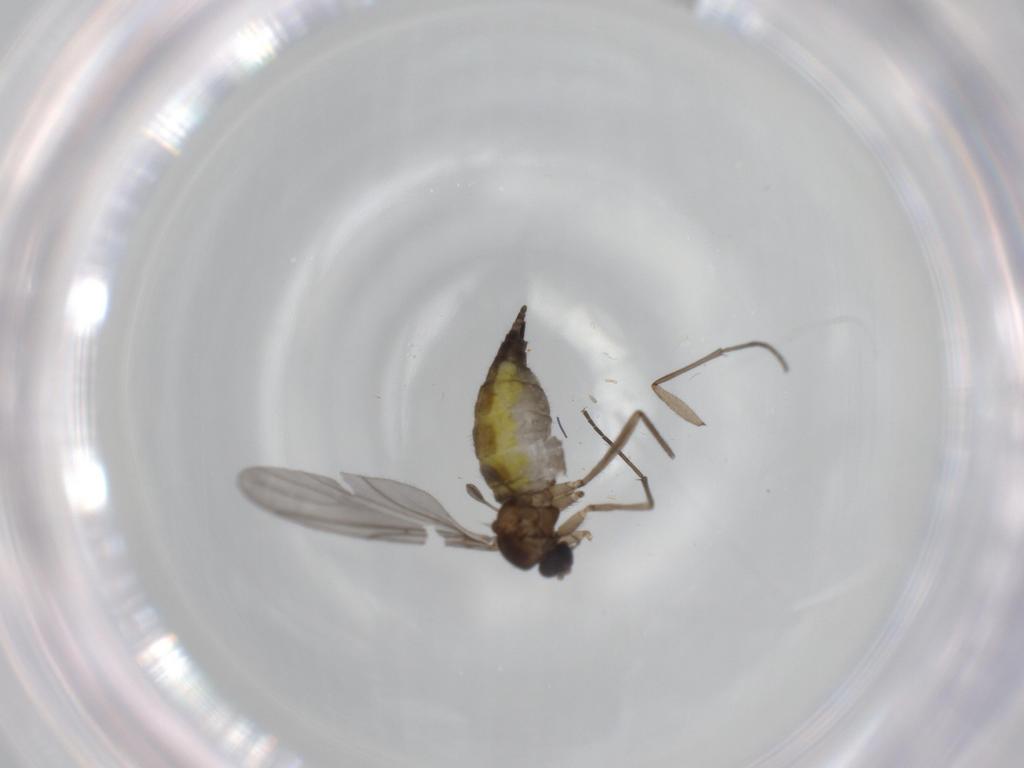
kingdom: Animalia
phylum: Arthropoda
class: Insecta
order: Diptera
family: Sciaridae
